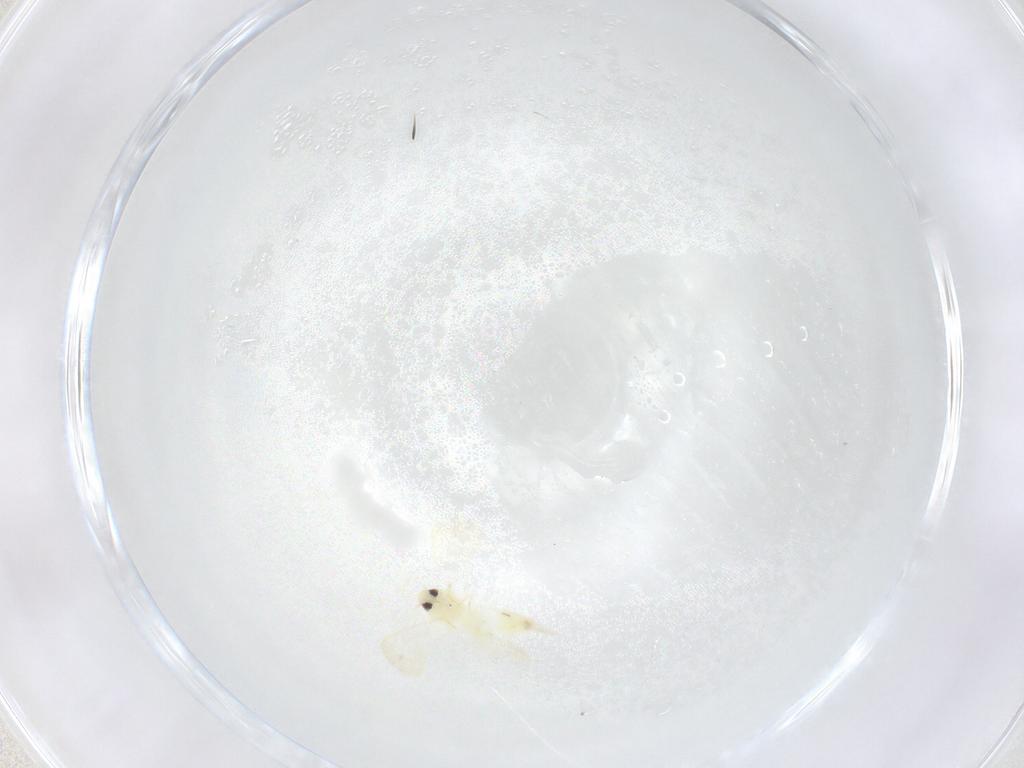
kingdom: Animalia
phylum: Arthropoda
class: Insecta
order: Hemiptera
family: Aleyrodidae
